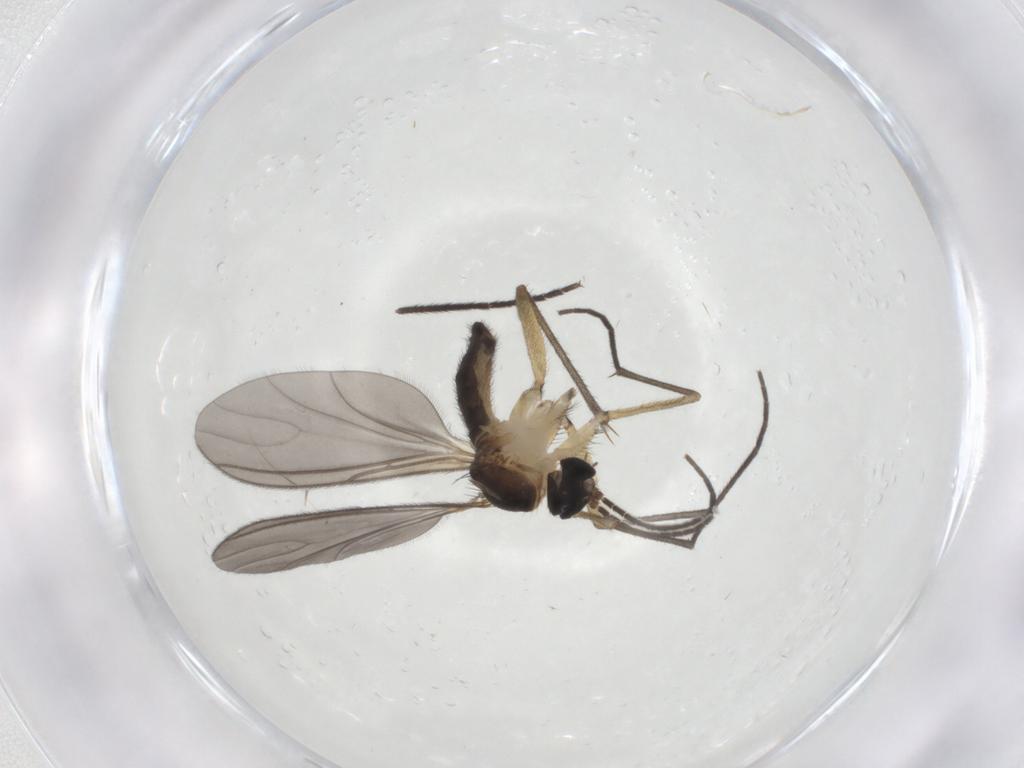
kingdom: Animalia
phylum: Arthropoda
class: Insecta
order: Diptera
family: Sciaridae
